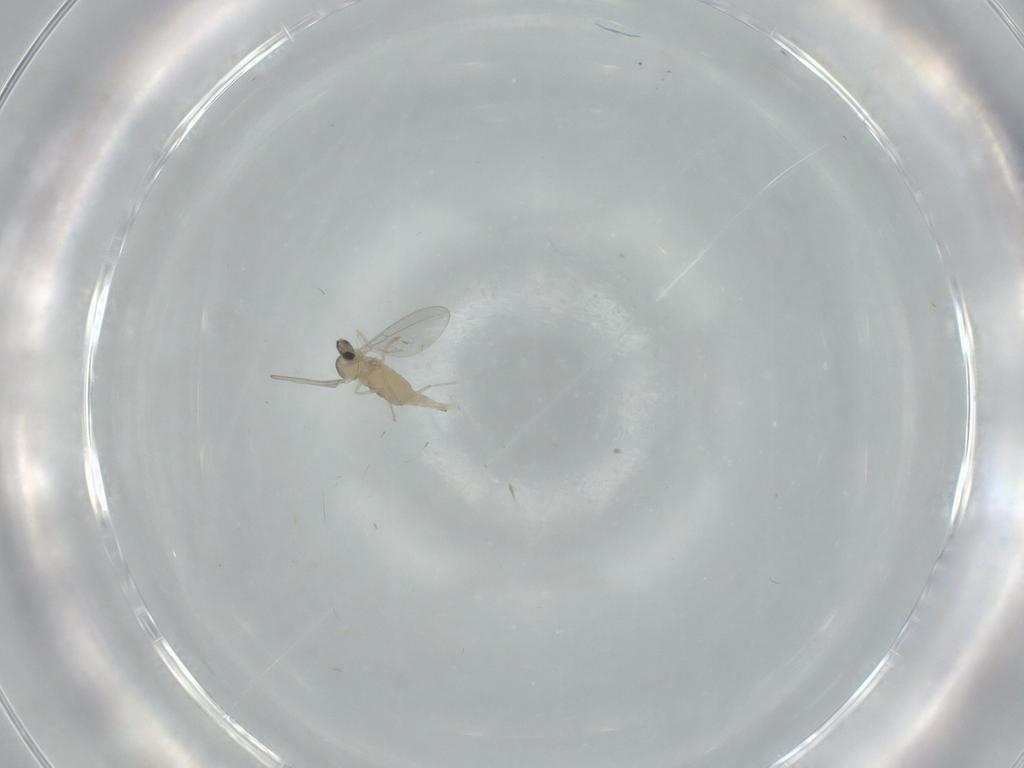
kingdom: Animalia
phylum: Arthropoda
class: Insecta
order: Diptera
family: Cecidomyiidae
